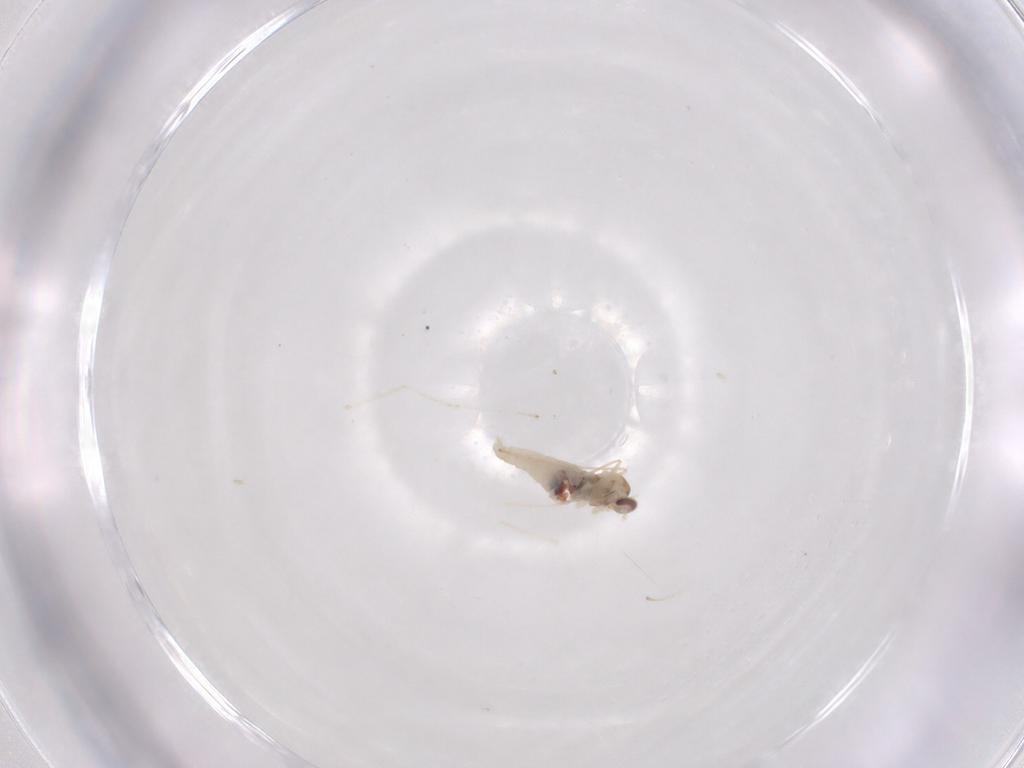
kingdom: Animalia
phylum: Arthropoda
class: Insecta
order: Diptera
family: Cecidomyiidae
